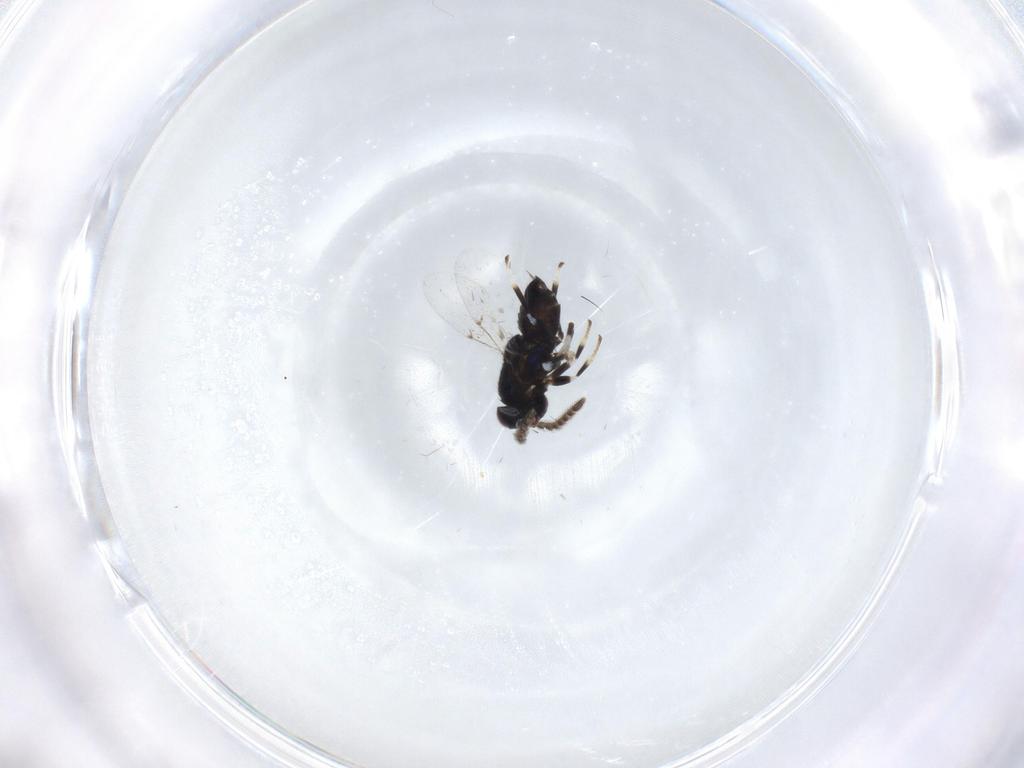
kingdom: Animalia
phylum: Arthropoda
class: Insecta
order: Hymenoptera
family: Encyrtidae
